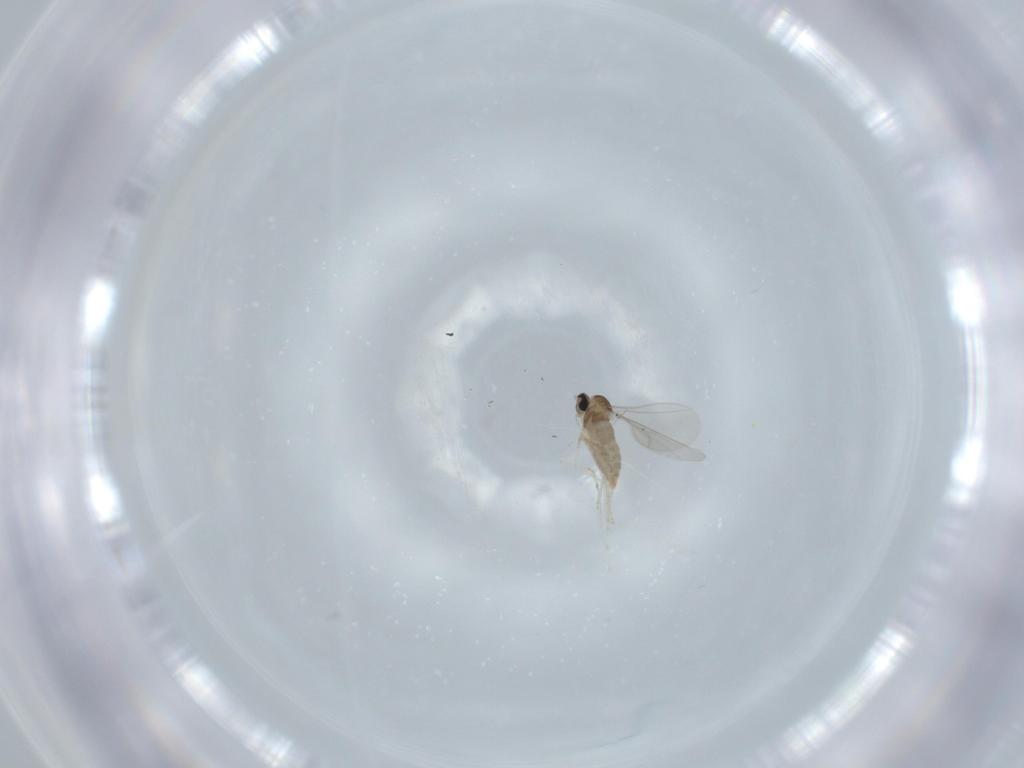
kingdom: Animalia
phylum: Arthropoda
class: Insecta
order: Diptera
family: Cecidomyiidae
